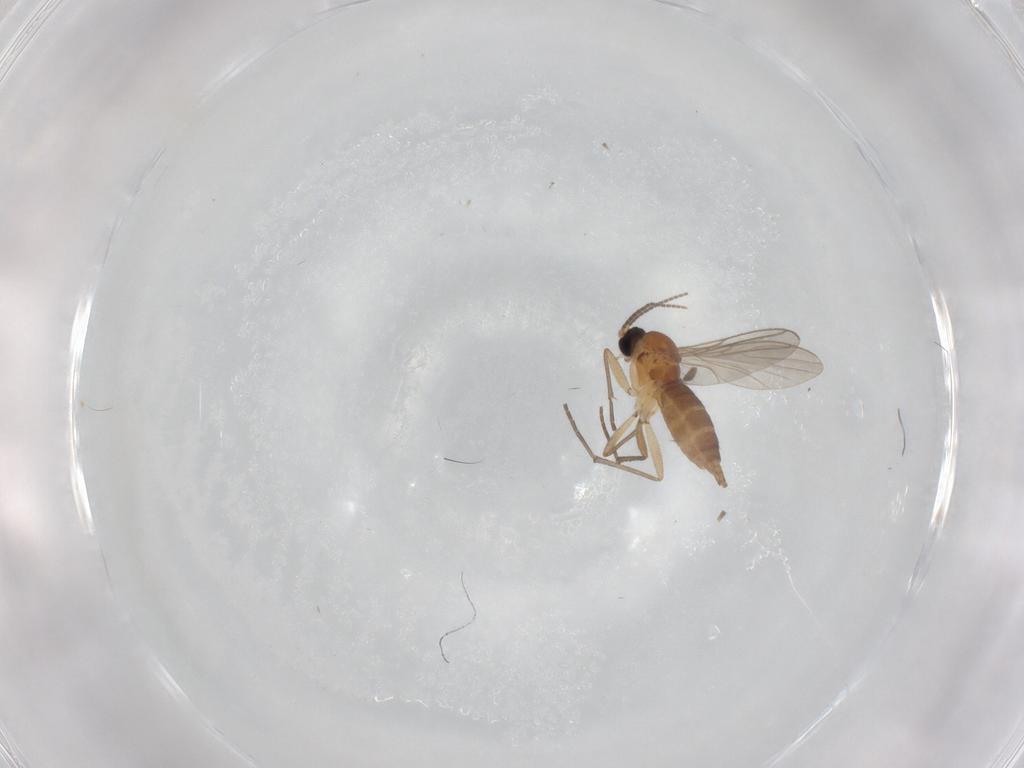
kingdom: Animalia
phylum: Arthropoda
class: Insecta
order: Diptera
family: Sciaridae
